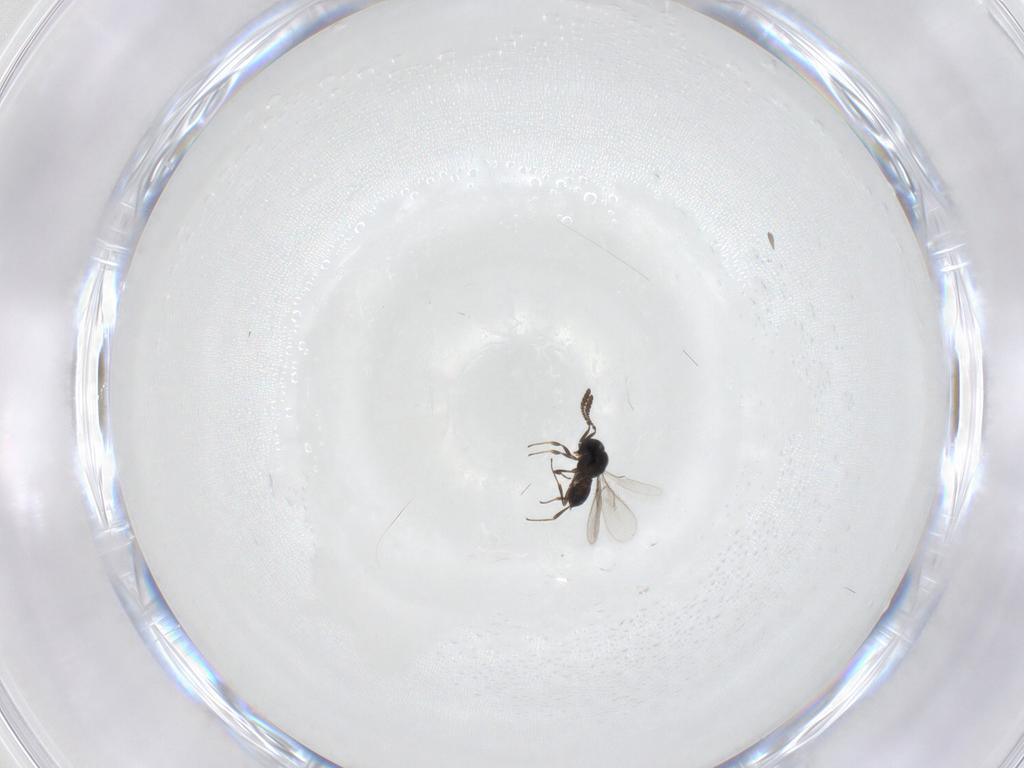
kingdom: Animalia
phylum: Arthropoda
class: Insecta
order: Hymenoptera
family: Scelionidae
